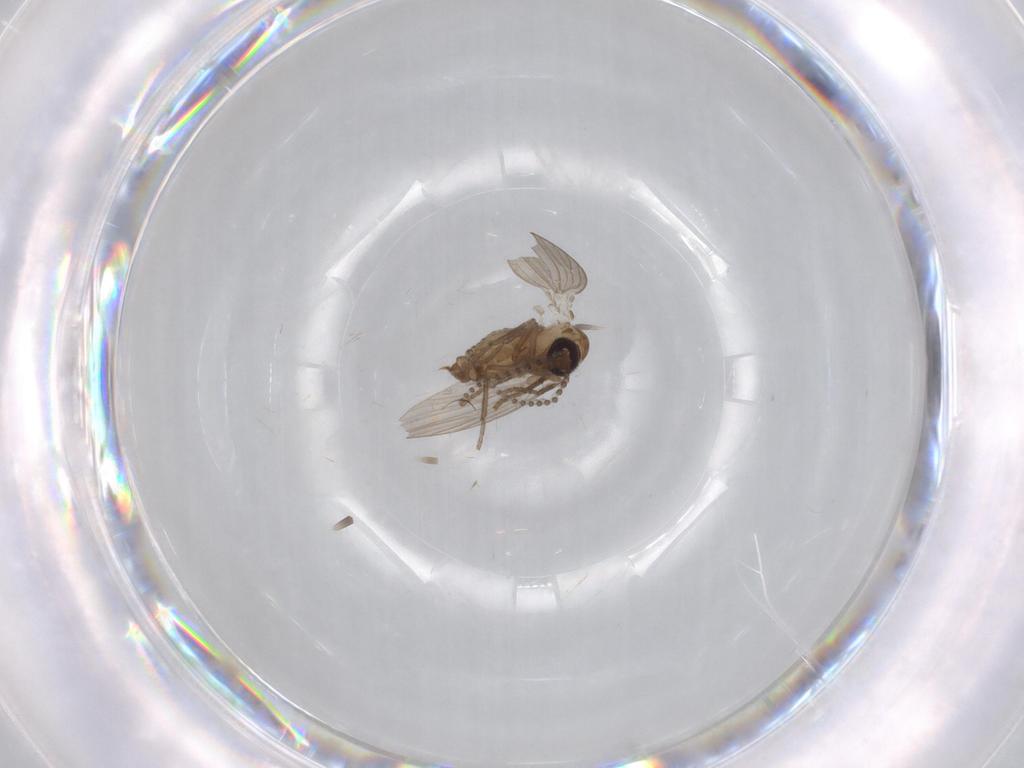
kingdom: Animalia
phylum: Arthropoda
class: Insecta
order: Diptera
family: Psychodidae
